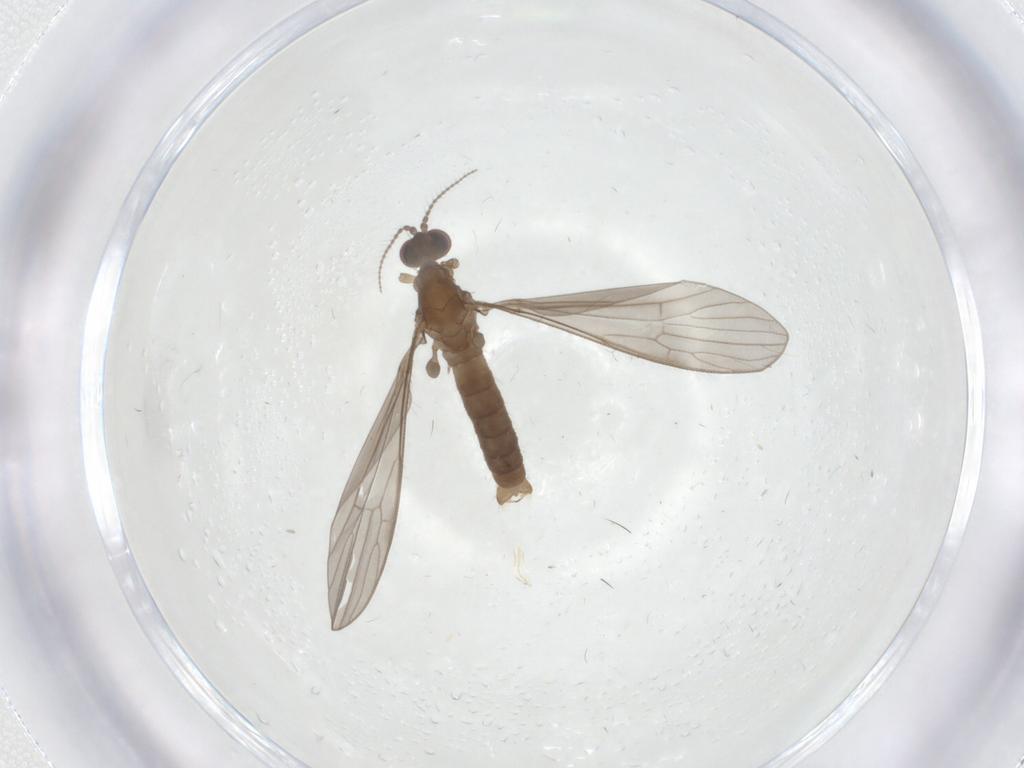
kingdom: Animalia
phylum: Arthropoda
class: Insecta
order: Diptera
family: Limoniidae
